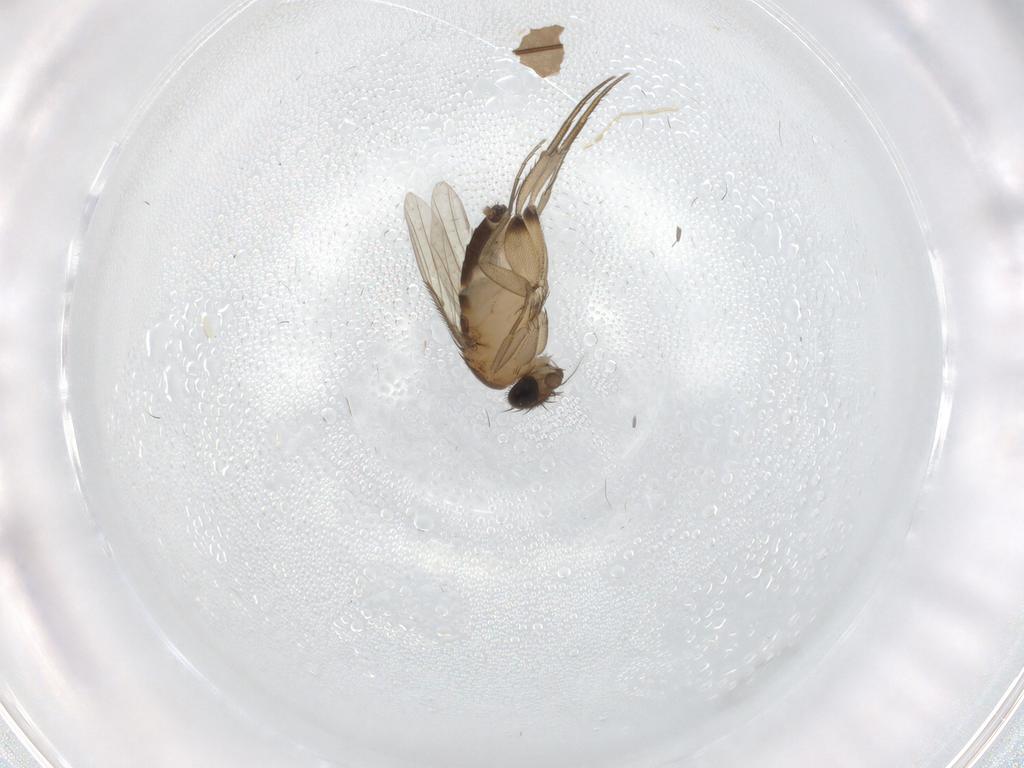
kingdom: Animalia
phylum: Arthropoda
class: Insecta
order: Diptera
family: Phoridae
